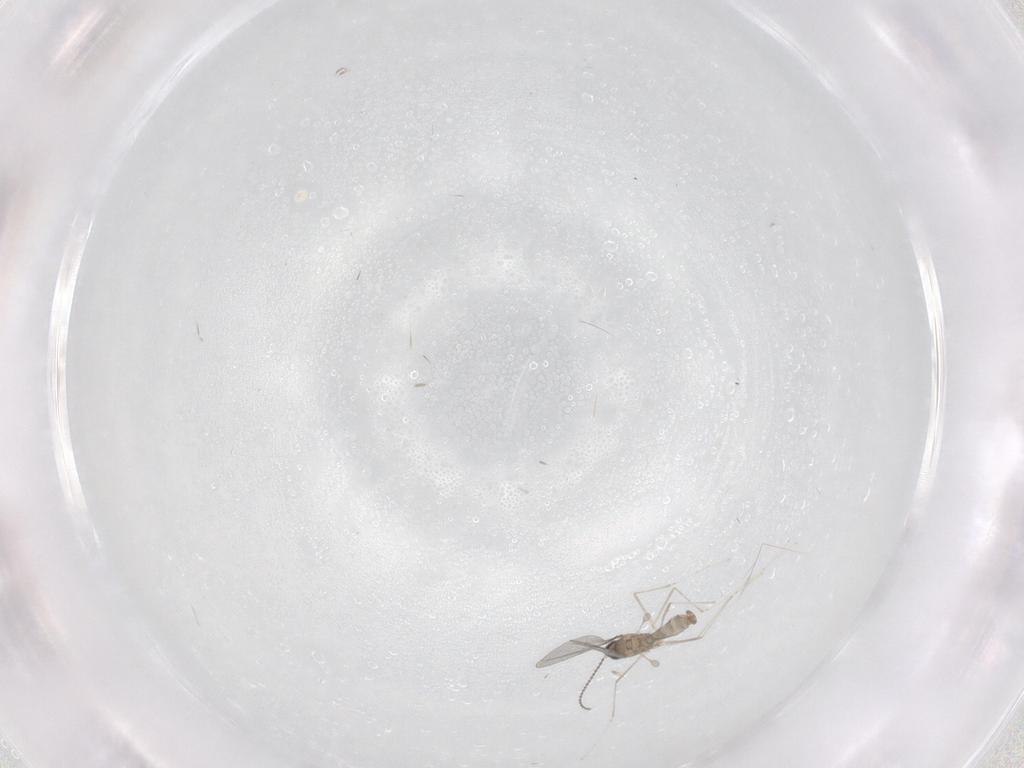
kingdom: Animalia
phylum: Arthropoda
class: Insecta
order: Diptera
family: Cecidomyiidae
